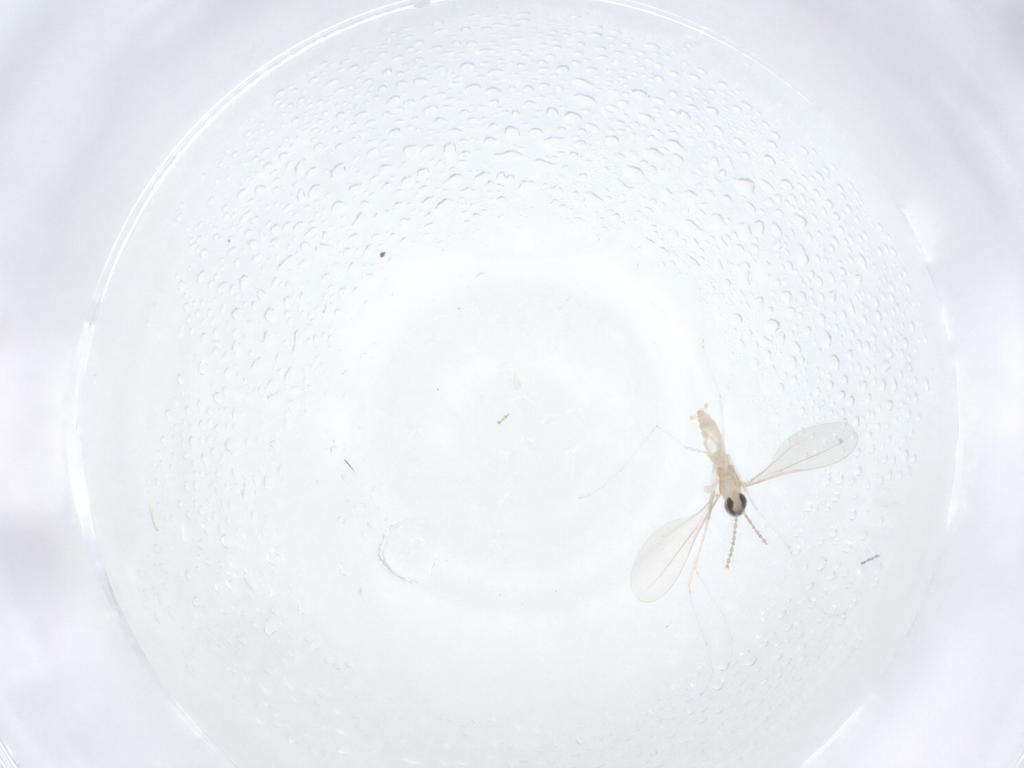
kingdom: Animalia
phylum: Arthropoda
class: Insecta
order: Diptera
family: Cecidomyiidae
